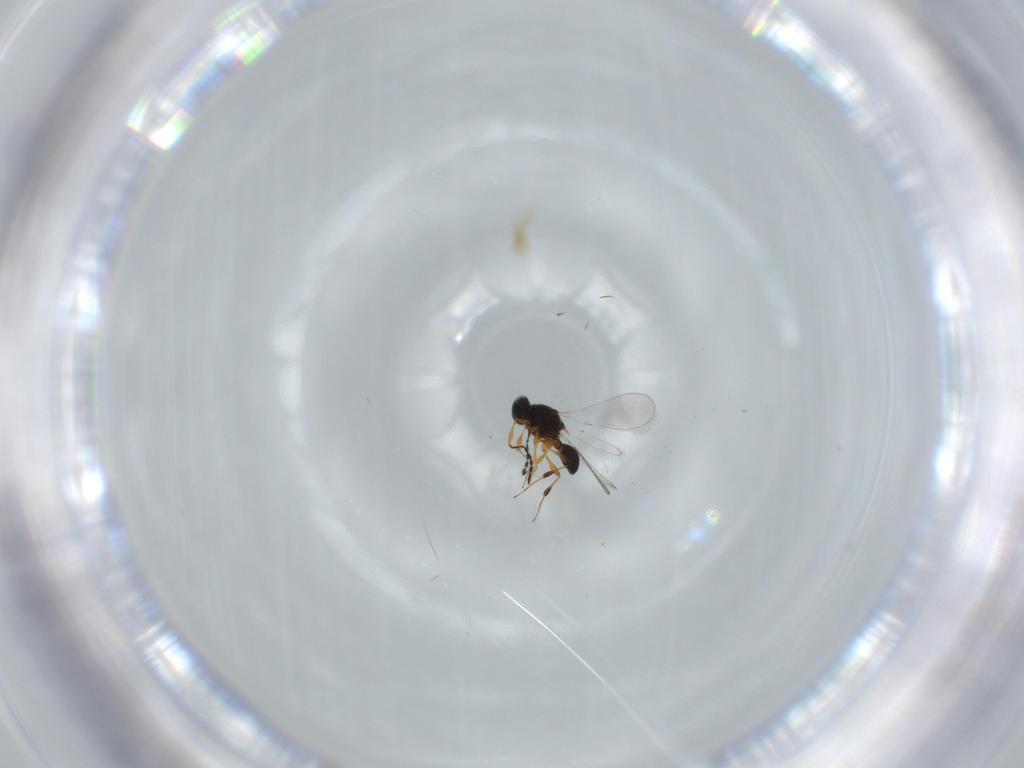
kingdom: Animalia
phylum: Arthropoda
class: Insecta
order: Hymenoptera
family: Platygastridae
